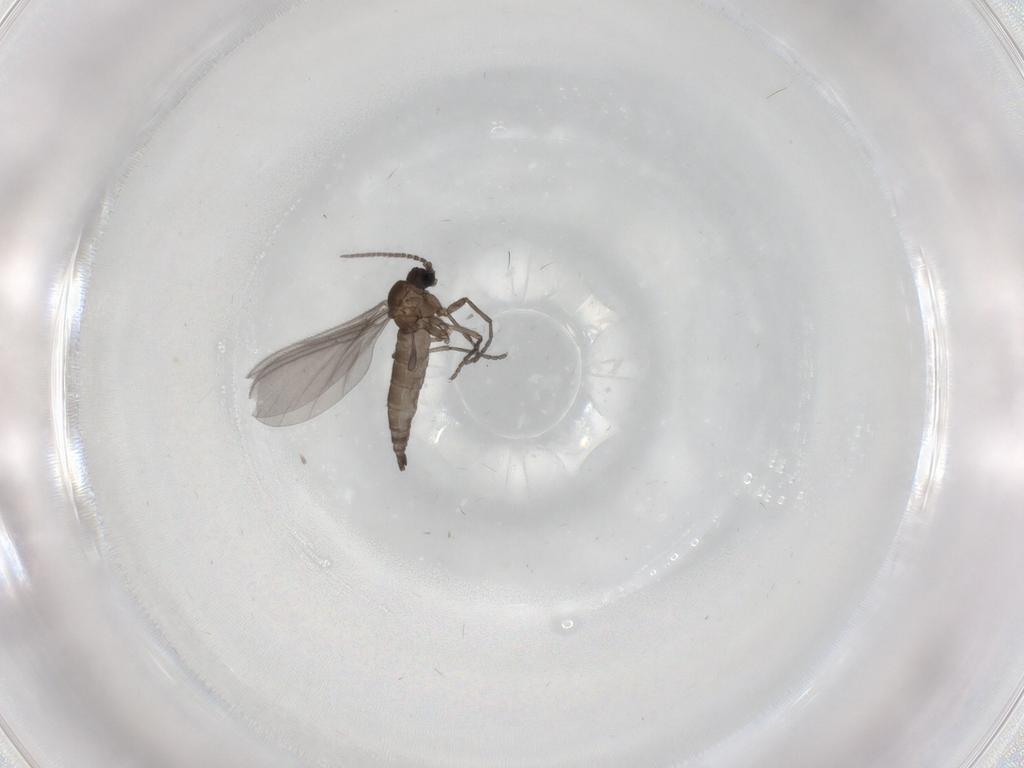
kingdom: Animalia
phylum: Arthropoda
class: Insecta
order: Diptera
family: Sciaridae
